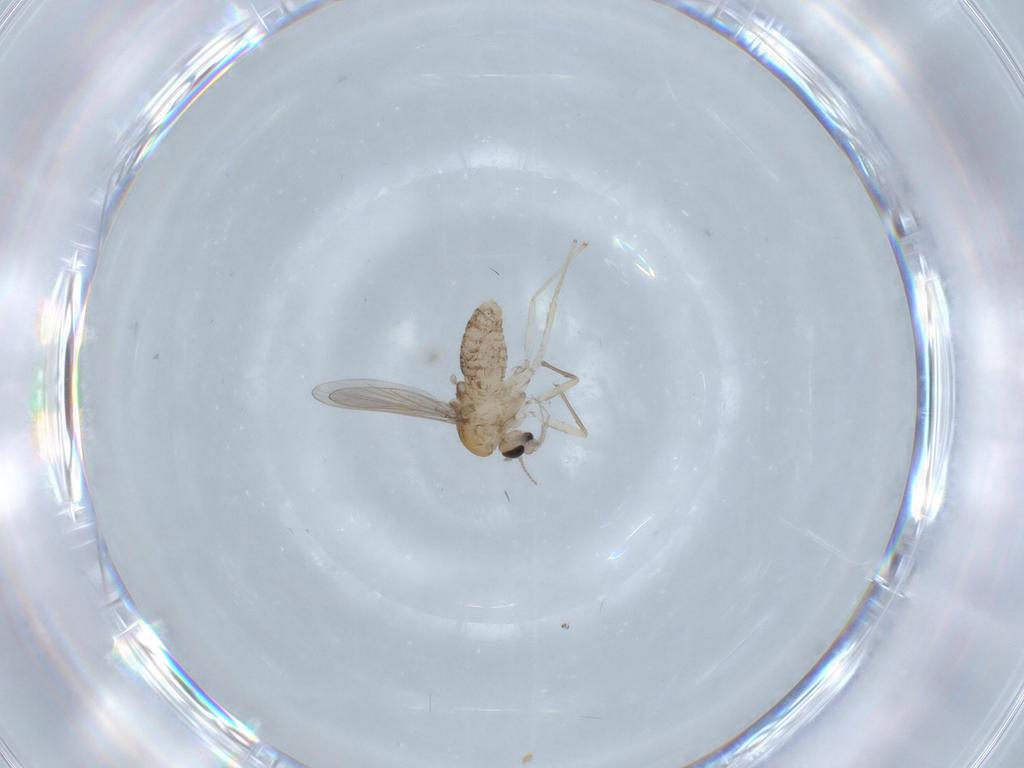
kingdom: Animalia
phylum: Arthropoda
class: Insecta
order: Diptera
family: Chironomidae
